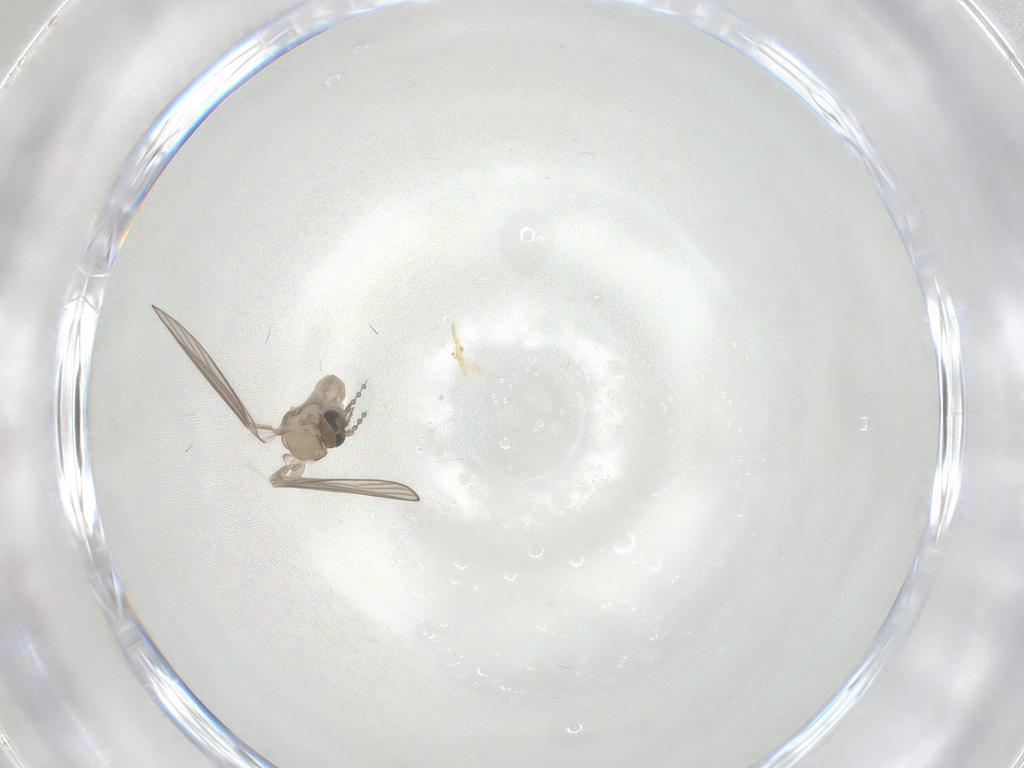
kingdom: Animalia
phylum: Arthropoda
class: Insecta
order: Diptera
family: Psychodidae
